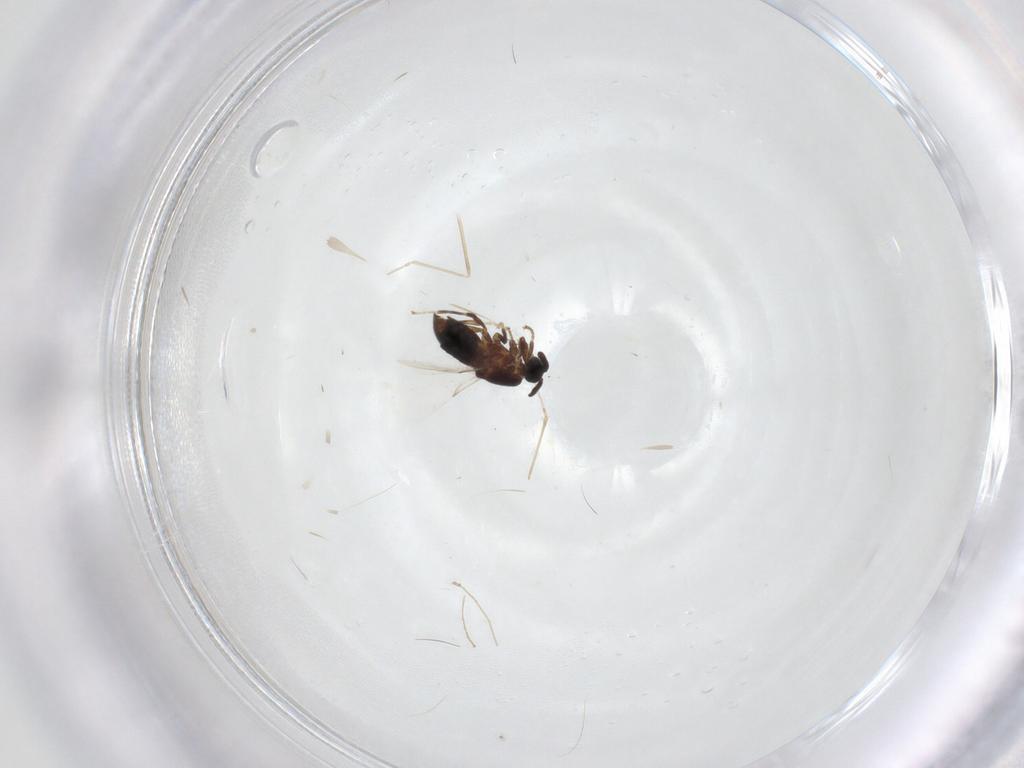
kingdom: Animalia
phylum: Arthropoda
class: Insecta
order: Diptera
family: Scatopsidae
